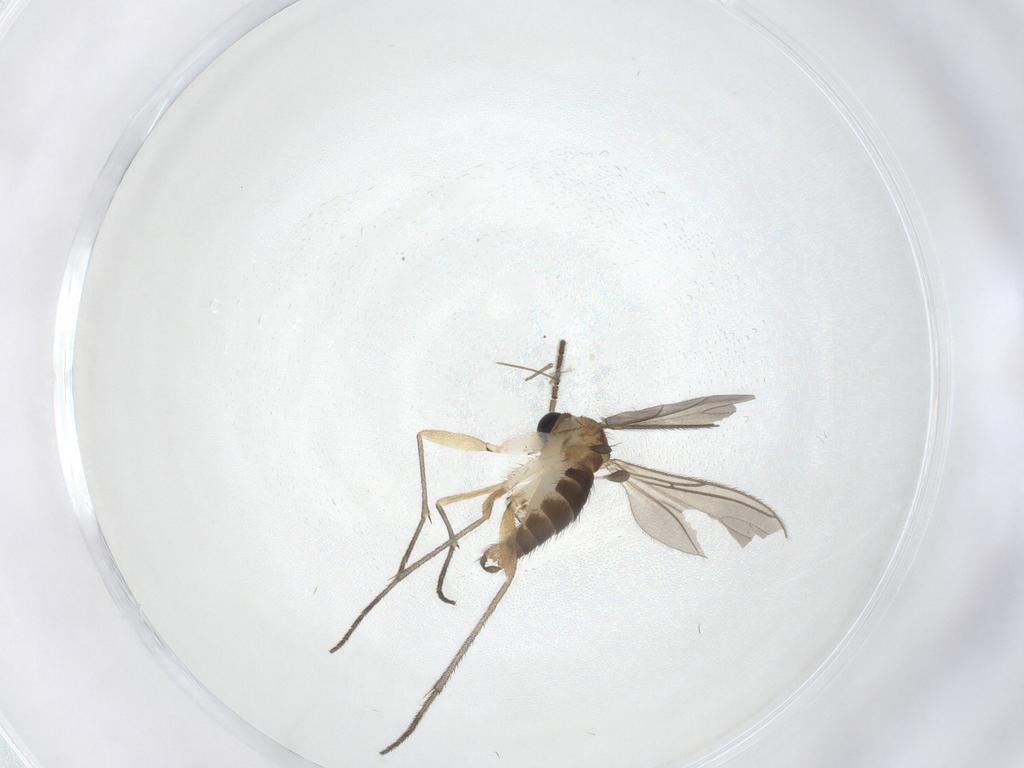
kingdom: Animalia
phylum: Arthropoda
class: Insecta
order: Diptera
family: Sciaridae
